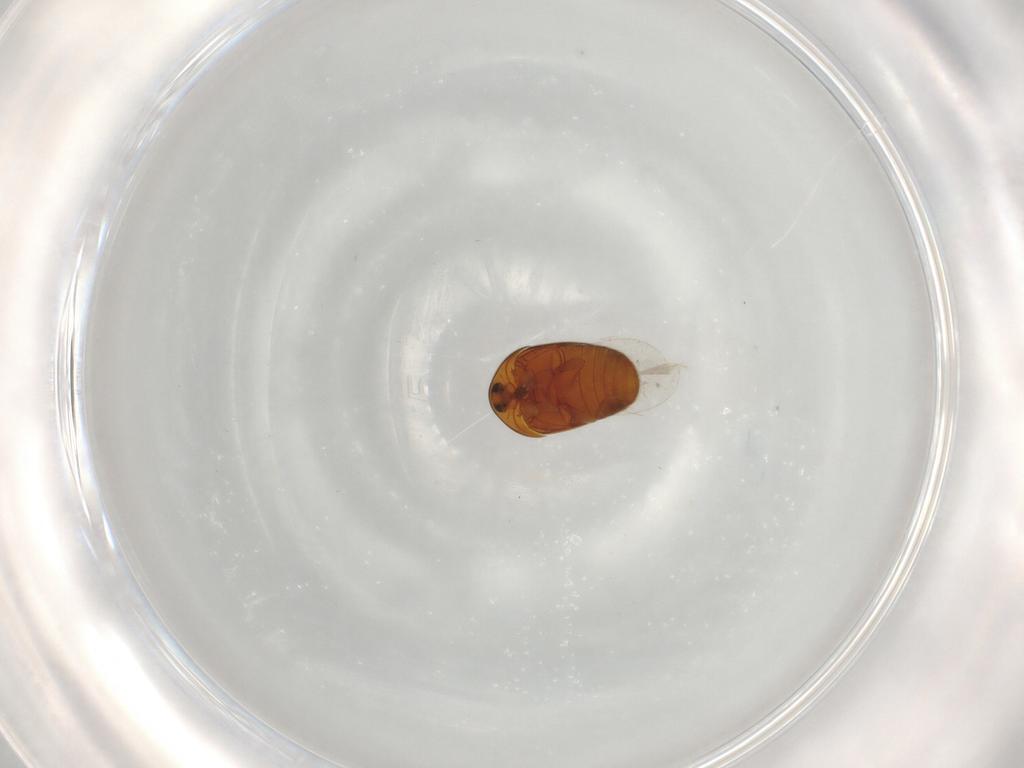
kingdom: Animalia
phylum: Arthropoda
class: Insecta
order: Coleoptera
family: Corylophidae
